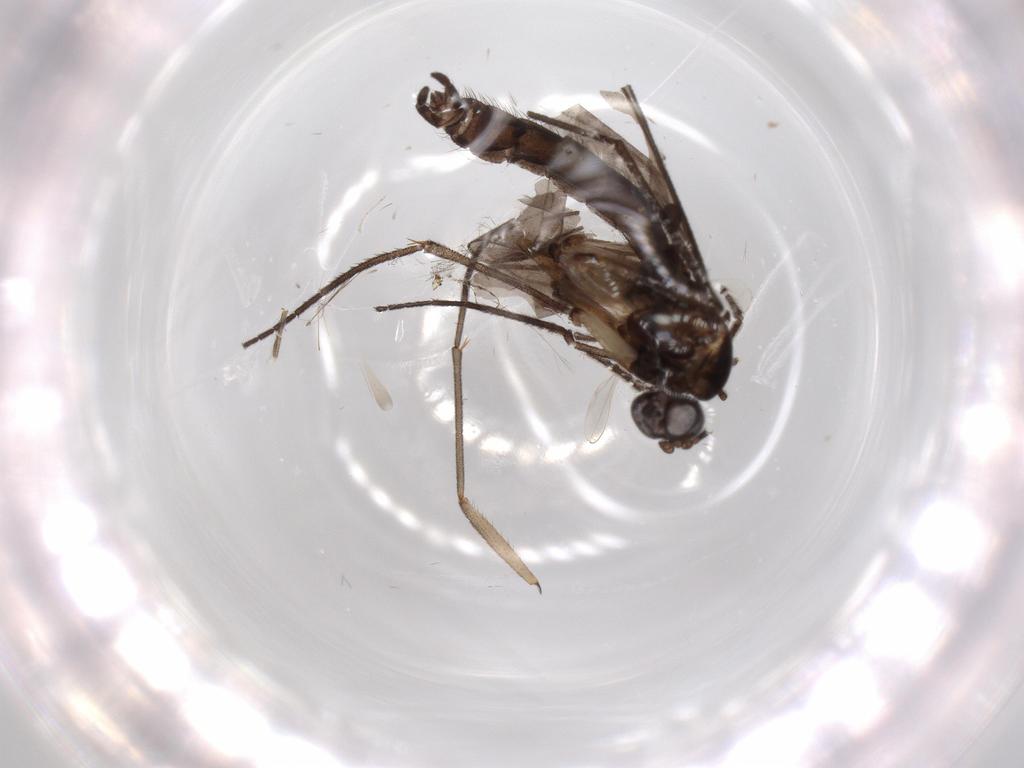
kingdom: Animalia
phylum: Arthropoda
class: Insecta
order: Diptera
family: Sciaridae
